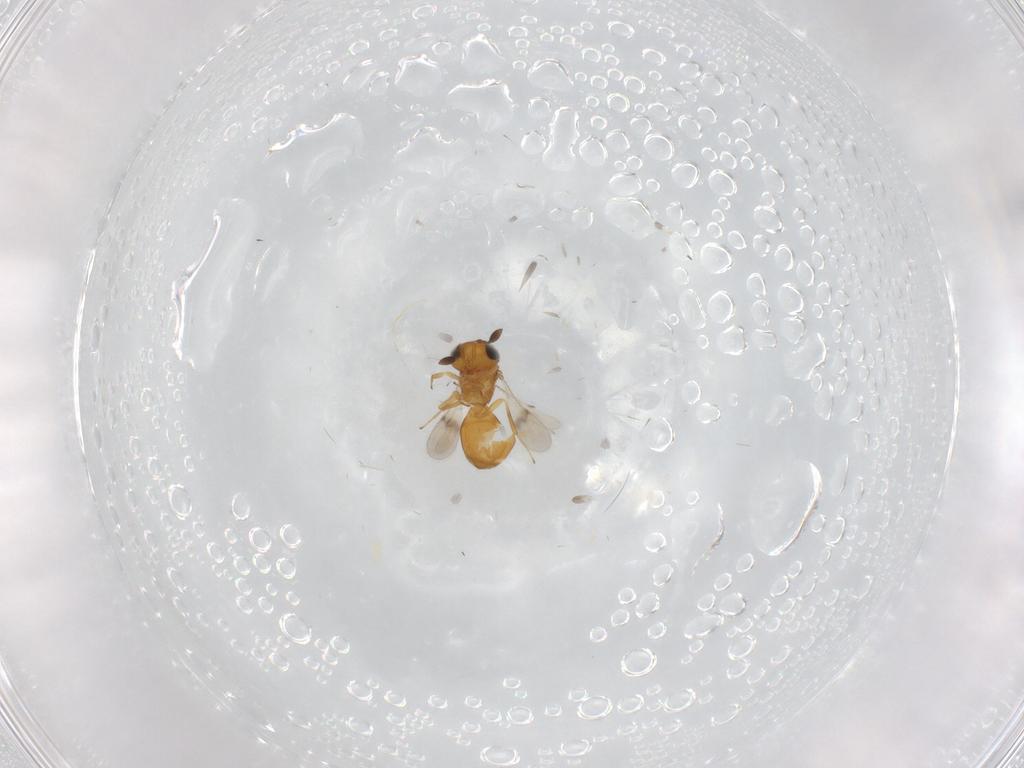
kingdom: Animalia
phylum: Arthropoda
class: Insecta
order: Hymenoptera
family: Scelionidae
